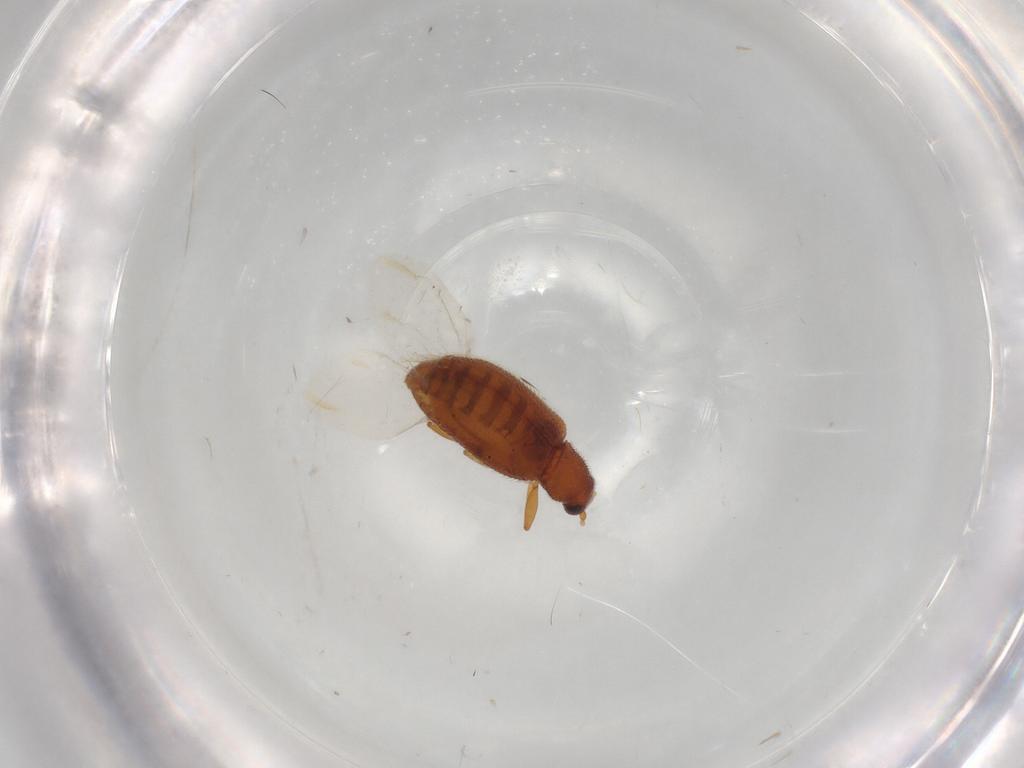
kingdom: Animalia
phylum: Arthropoda
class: Insecta
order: Coleoptera
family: Latridiidae
